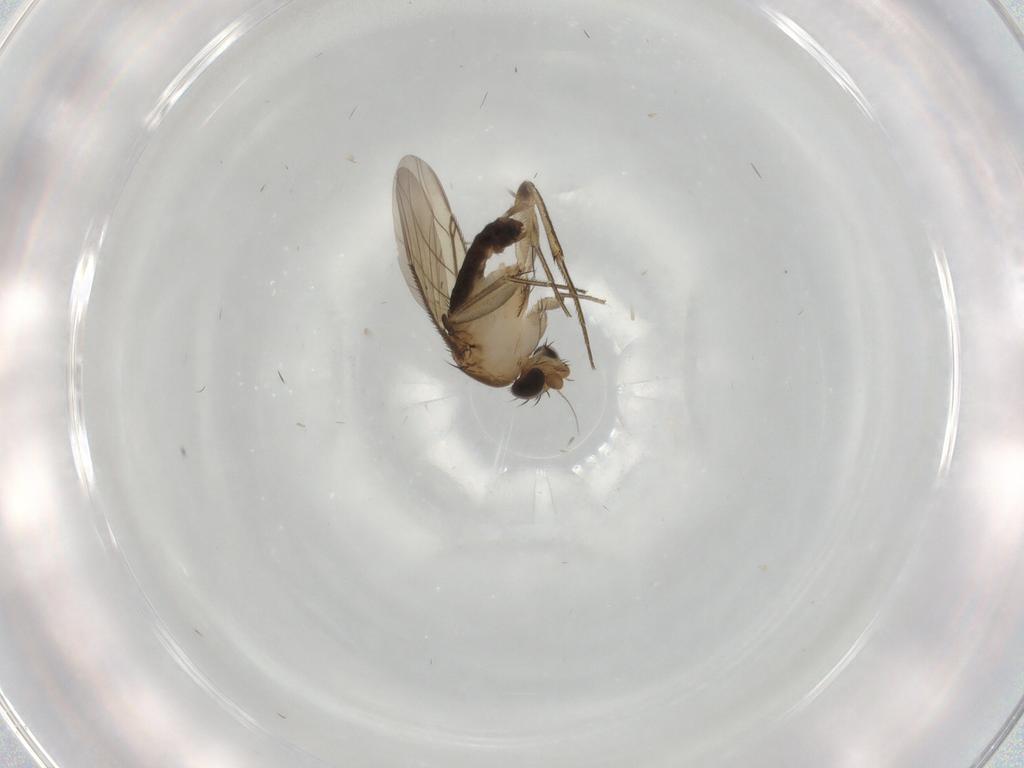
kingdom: Animalia
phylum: Arthropoda
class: Insecta
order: Diptera
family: Phoridae
